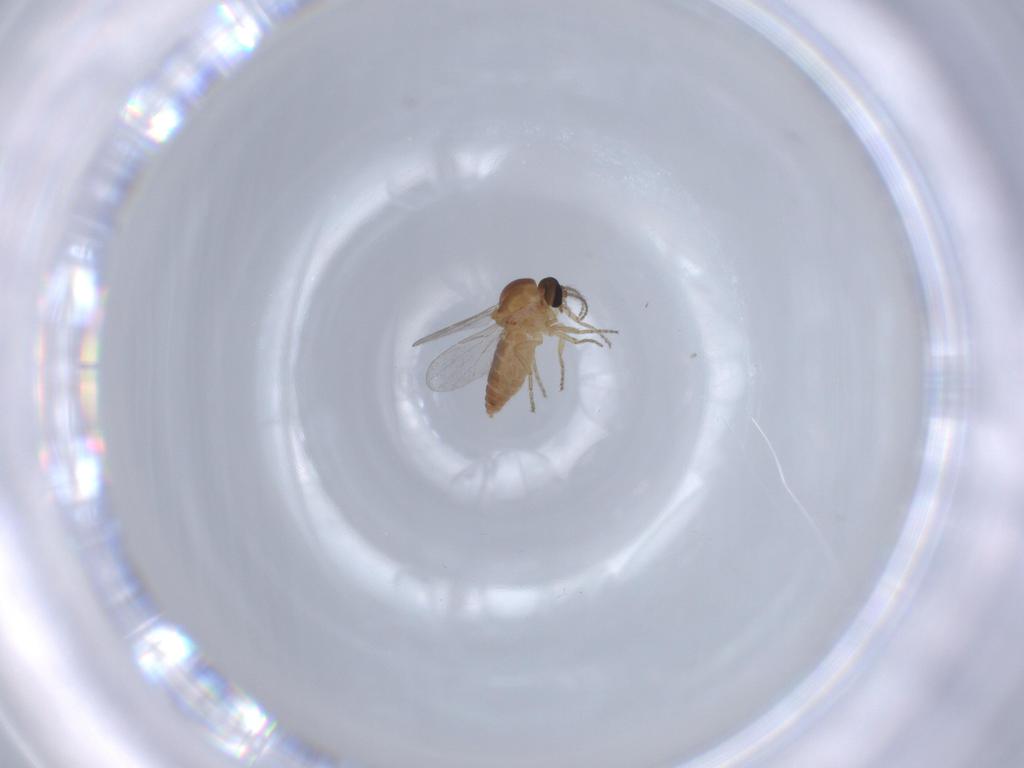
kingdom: Animalia
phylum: Arthropoda
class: Insecta
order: Diptera
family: Ceratopogonidae
